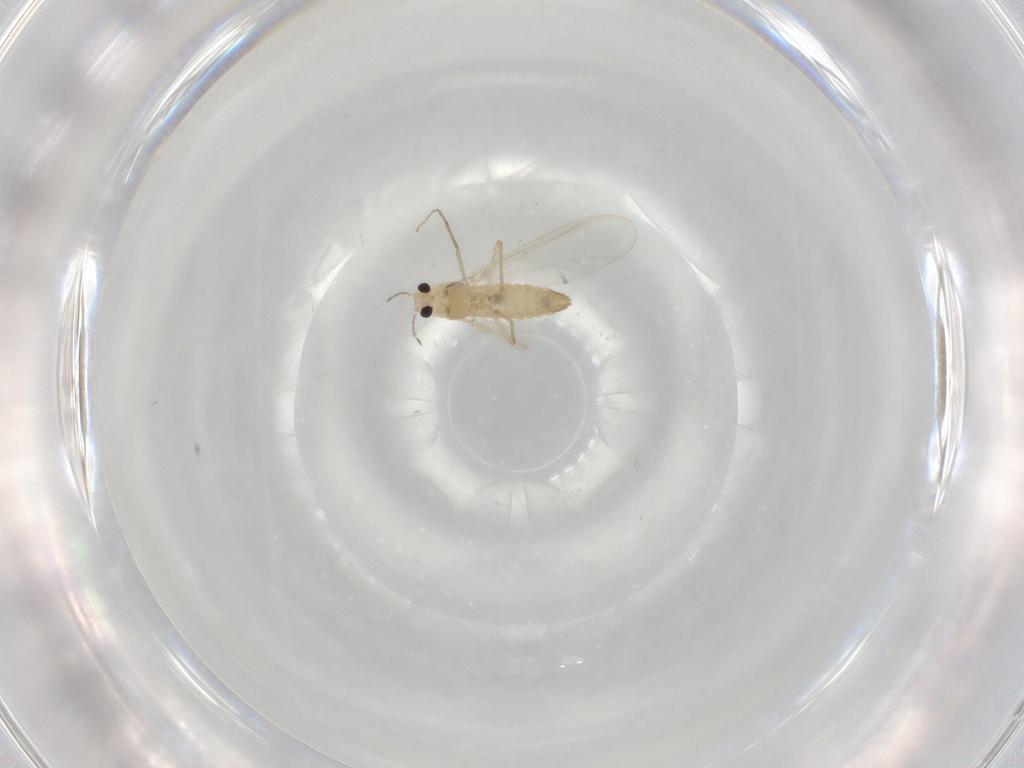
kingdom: Animalia
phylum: Arthropoda
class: Insecta
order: Diptera
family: Chironomidae
